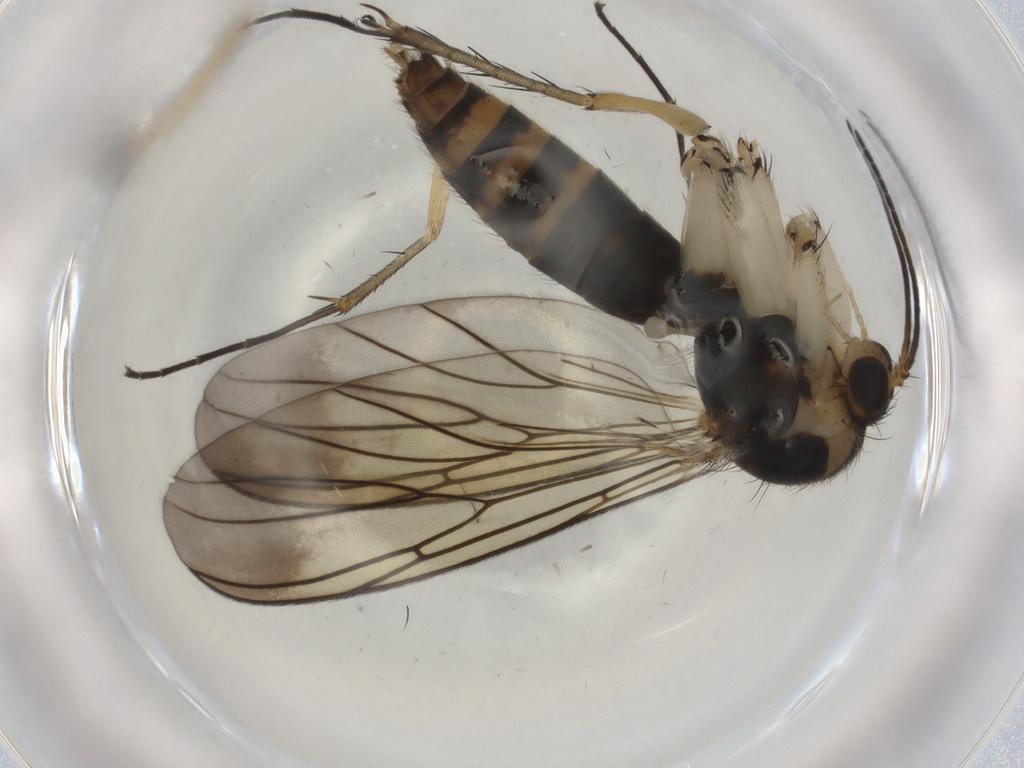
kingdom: Animalia
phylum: Arthropoda
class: Insecta
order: Diptera
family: Mycetophilidae
